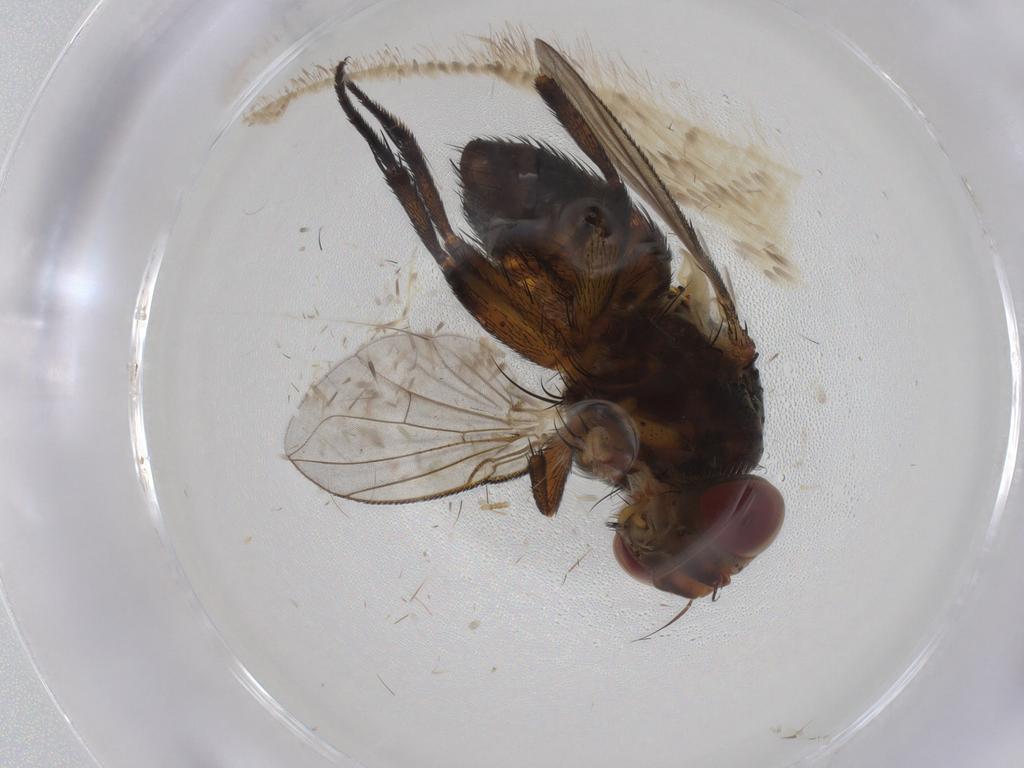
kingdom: Animalia
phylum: Arthropoda
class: Insecta
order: Diptera
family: Tachinidae
